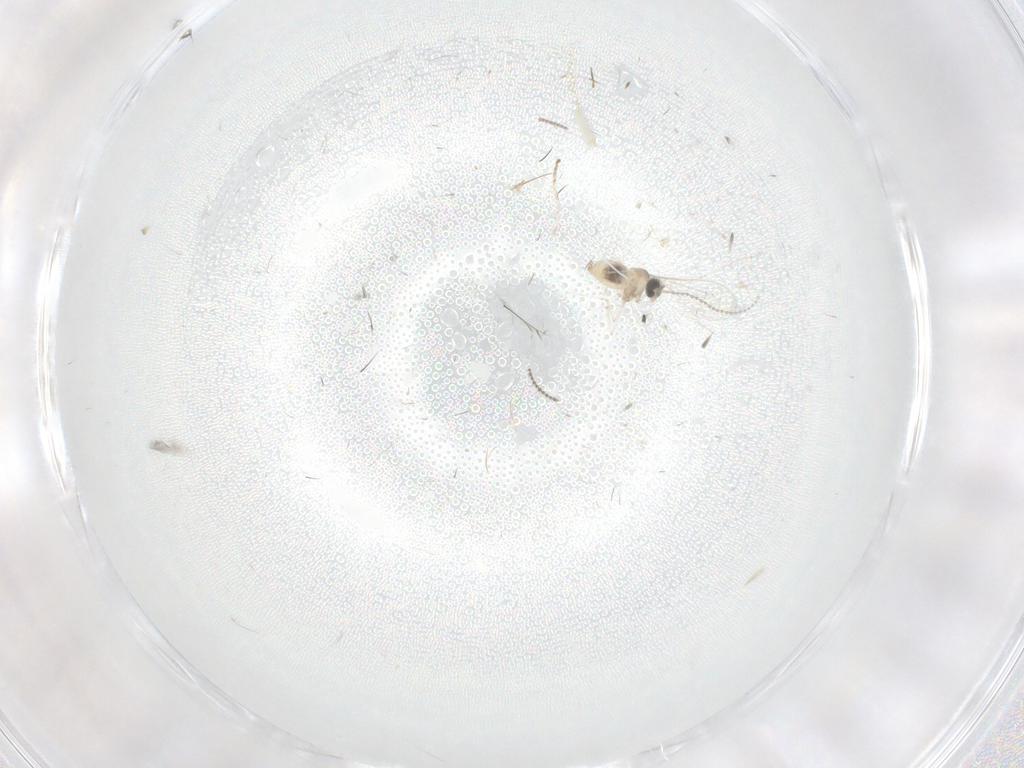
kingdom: Animalia
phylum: Arthropoda
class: Insecta
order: Diptera
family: Cecidomyiidae
